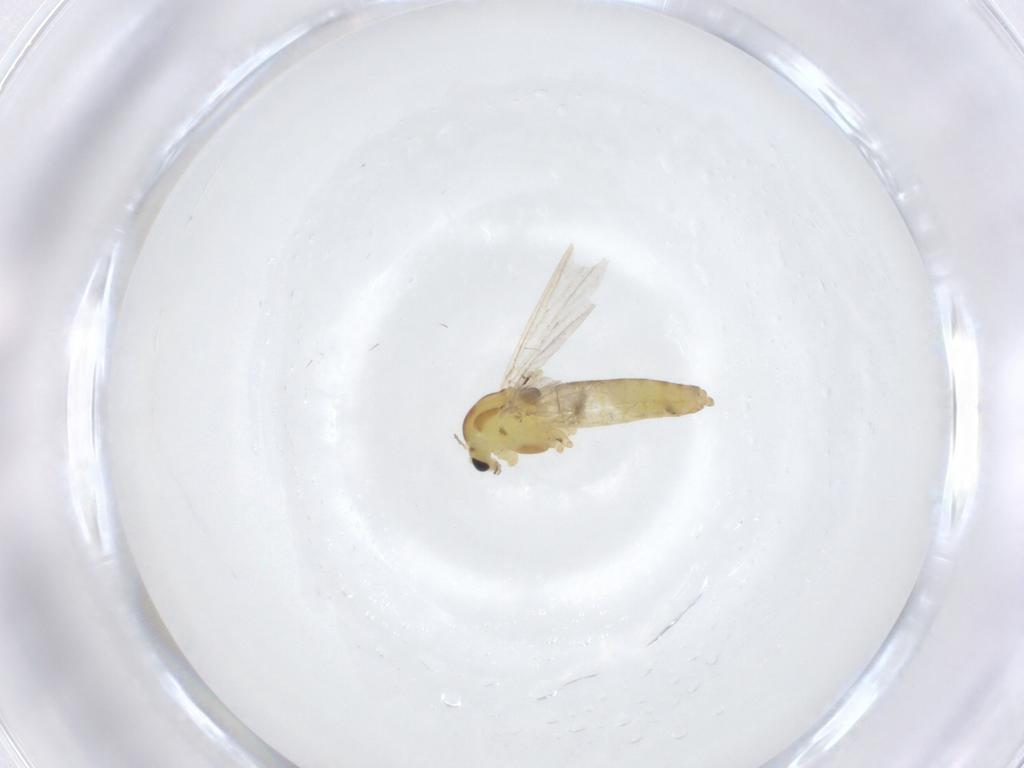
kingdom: Animalia
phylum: Arthropoda
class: Insecta
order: Diptera
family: Chironomidae
